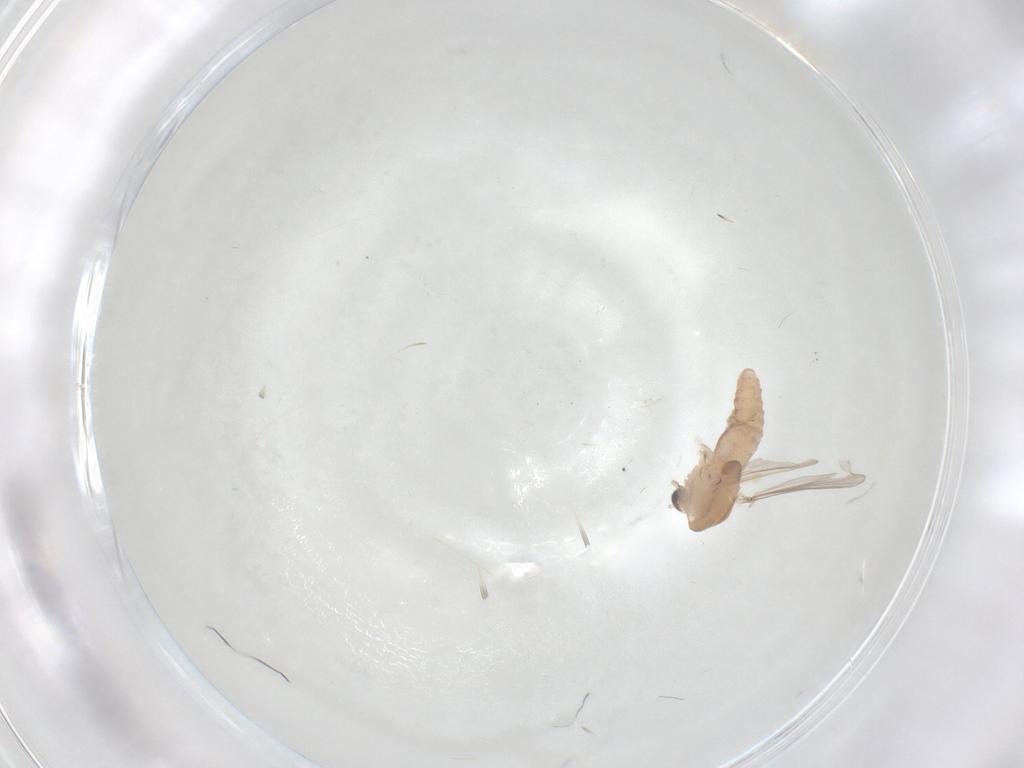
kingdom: Animalia
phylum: Arthropoda
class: Insecta
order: Diptera
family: Chironomidae
